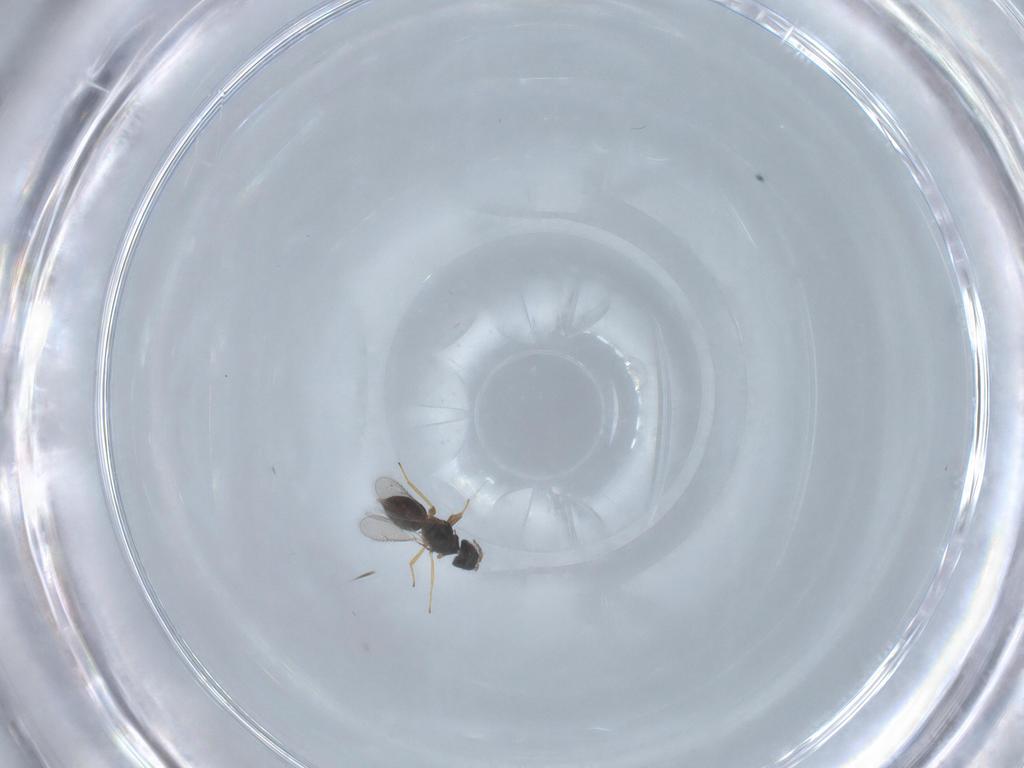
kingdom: Animalia
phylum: Arthropoda
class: Insecta
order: Hymenoptera
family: Eulophidae
